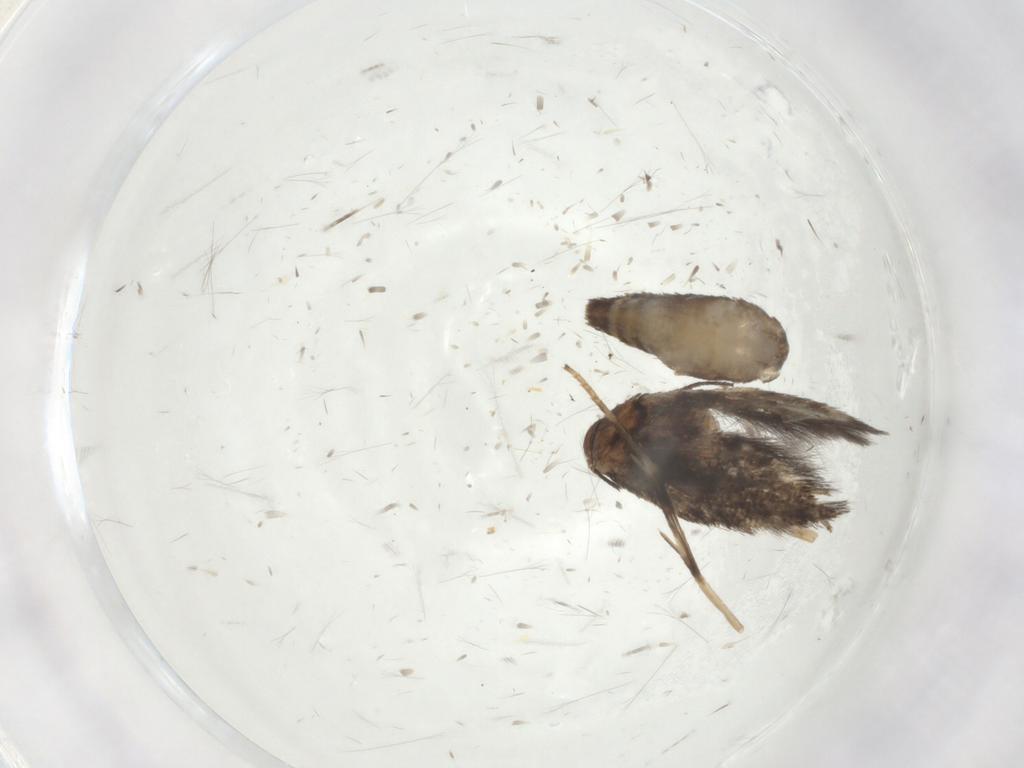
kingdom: Animalia
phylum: Arthropoda
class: Insecta
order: Lepidoptera
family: Gelechiidae
